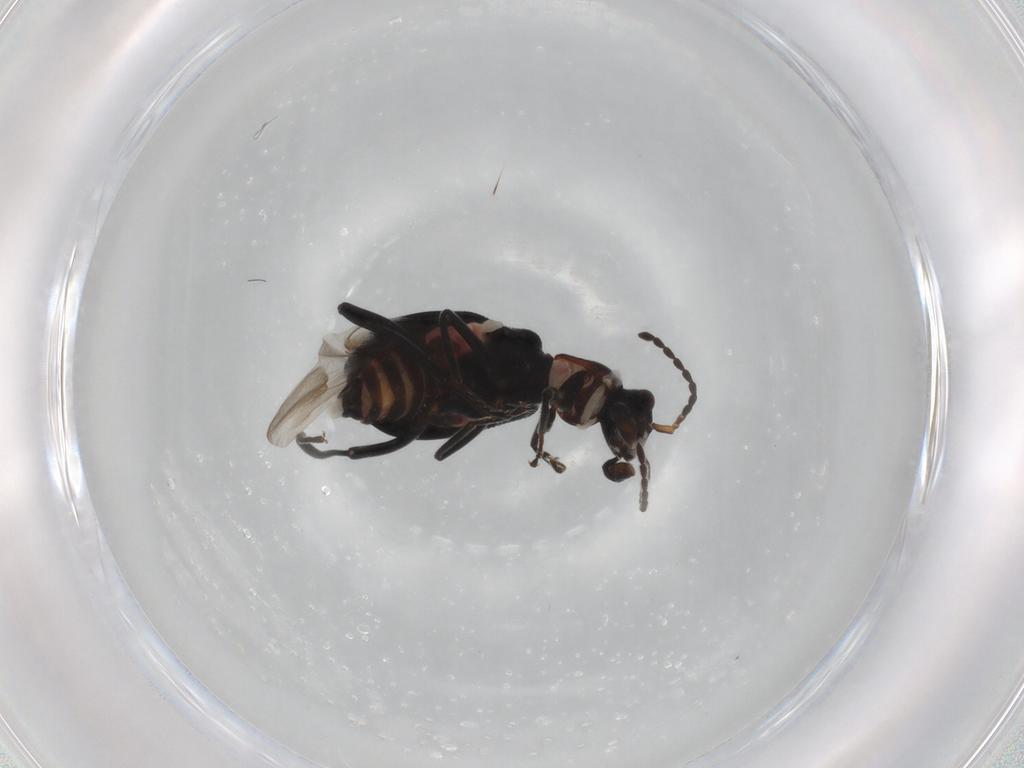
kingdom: Animalia
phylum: Arthropoda
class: Insecta
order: Coleoptera
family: Melyridae
